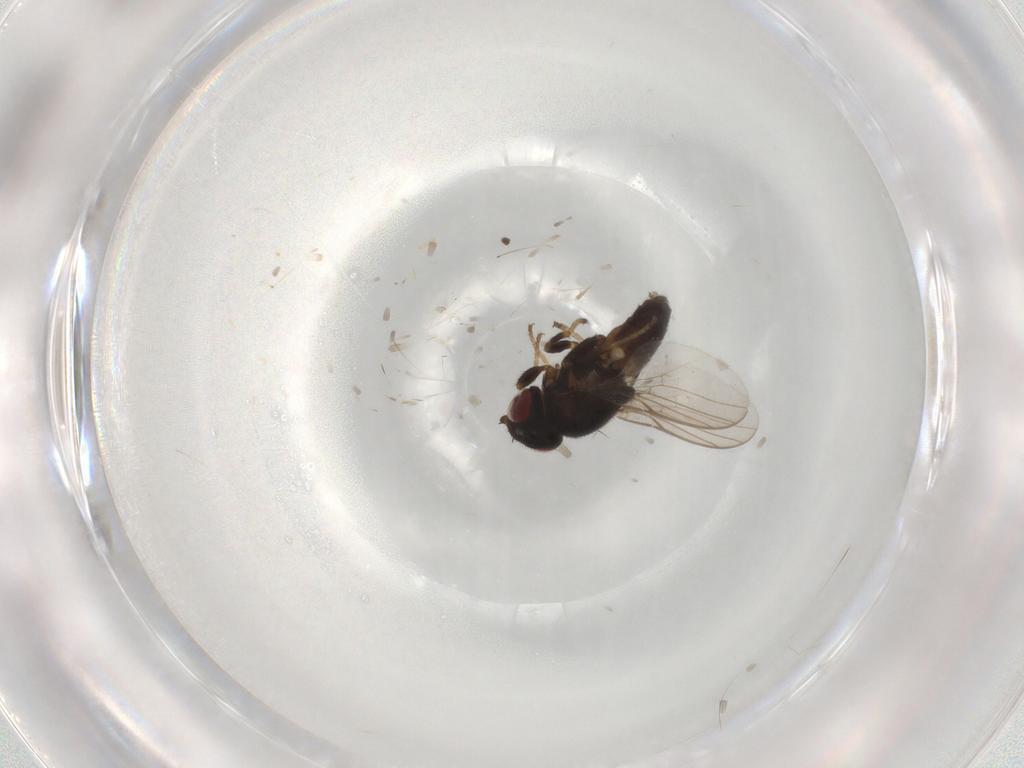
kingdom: Animalia
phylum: Arthropoda
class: Insecta
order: Diptera
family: Chloropidae
